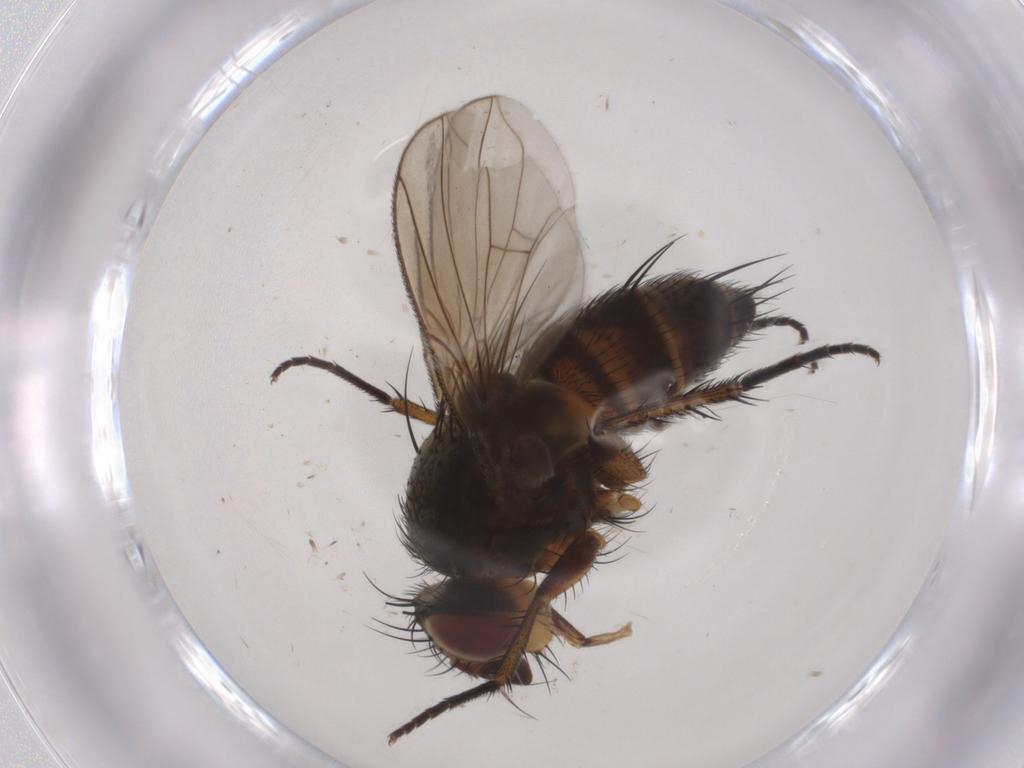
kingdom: Animalia
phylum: Arthropoda
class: Insecta
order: Diptera
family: Tachinidae
